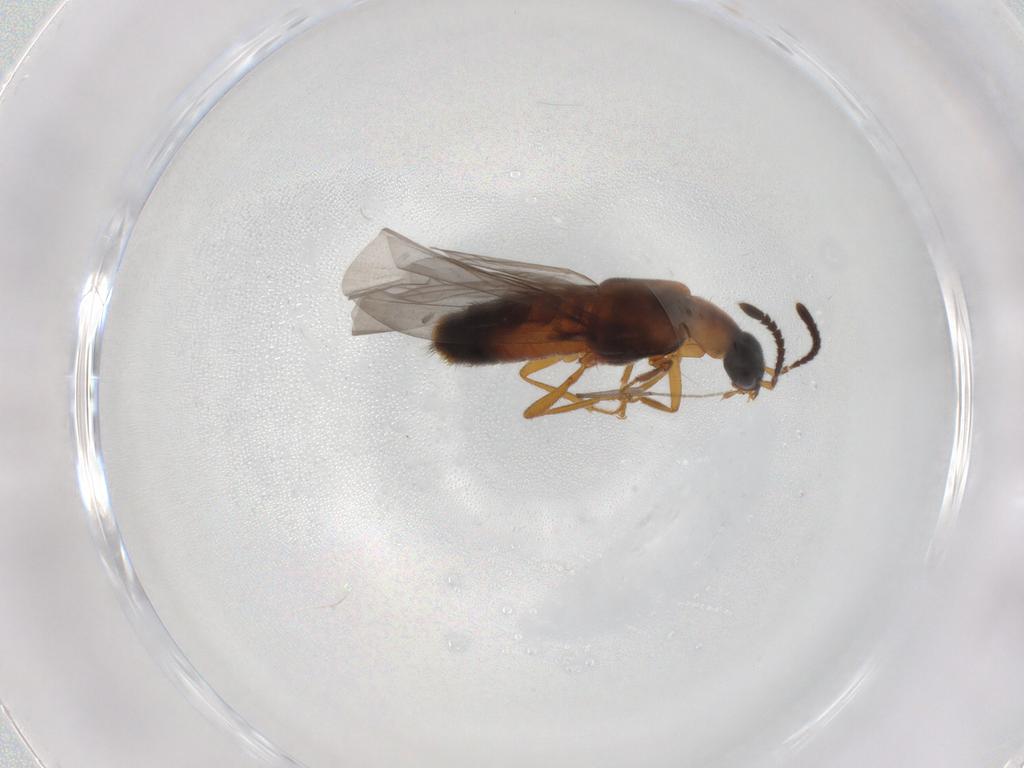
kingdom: Animalia
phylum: Arthropoda
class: Insecta
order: Coleoptera
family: Staphylinidae
